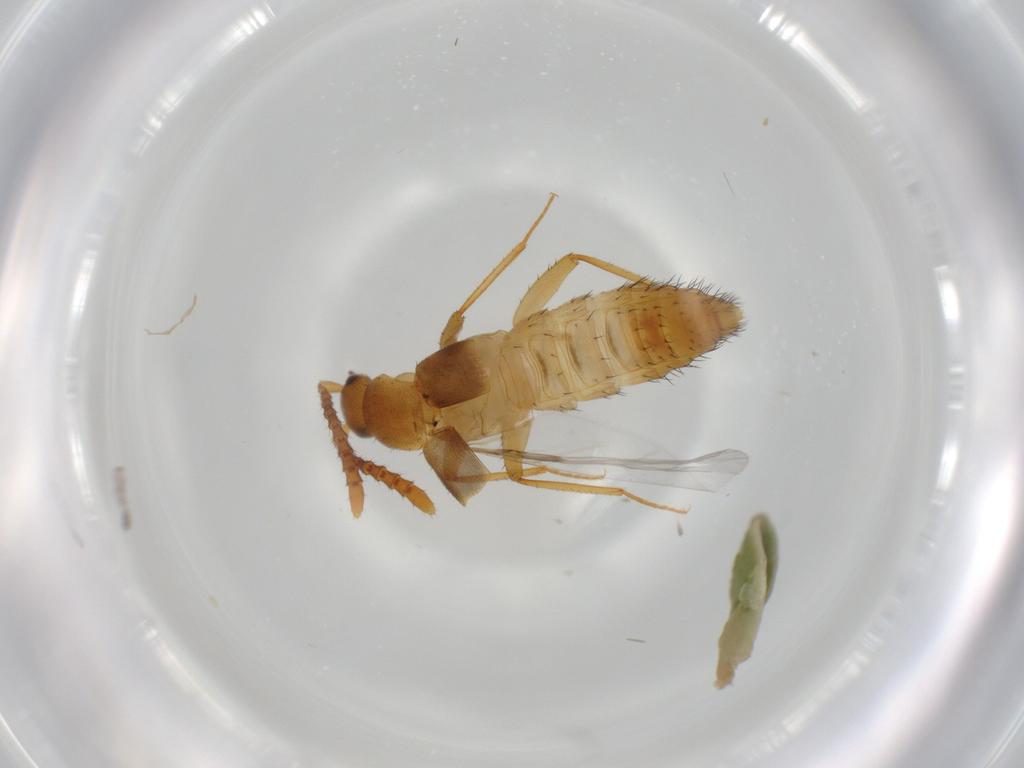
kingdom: Animalia
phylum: Arthropoda
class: Insecta
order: Coleoptera
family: Staphylinidae
